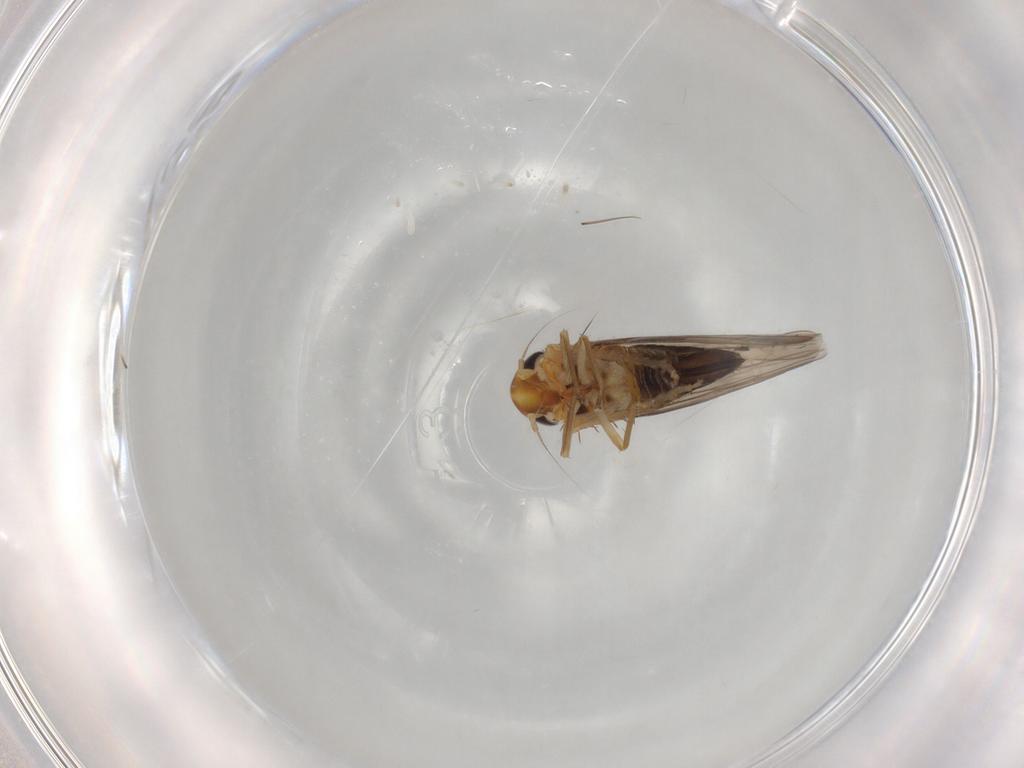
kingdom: Animalia
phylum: Arthropoda
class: Insecta
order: Hemiptera
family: Cicadellidae
